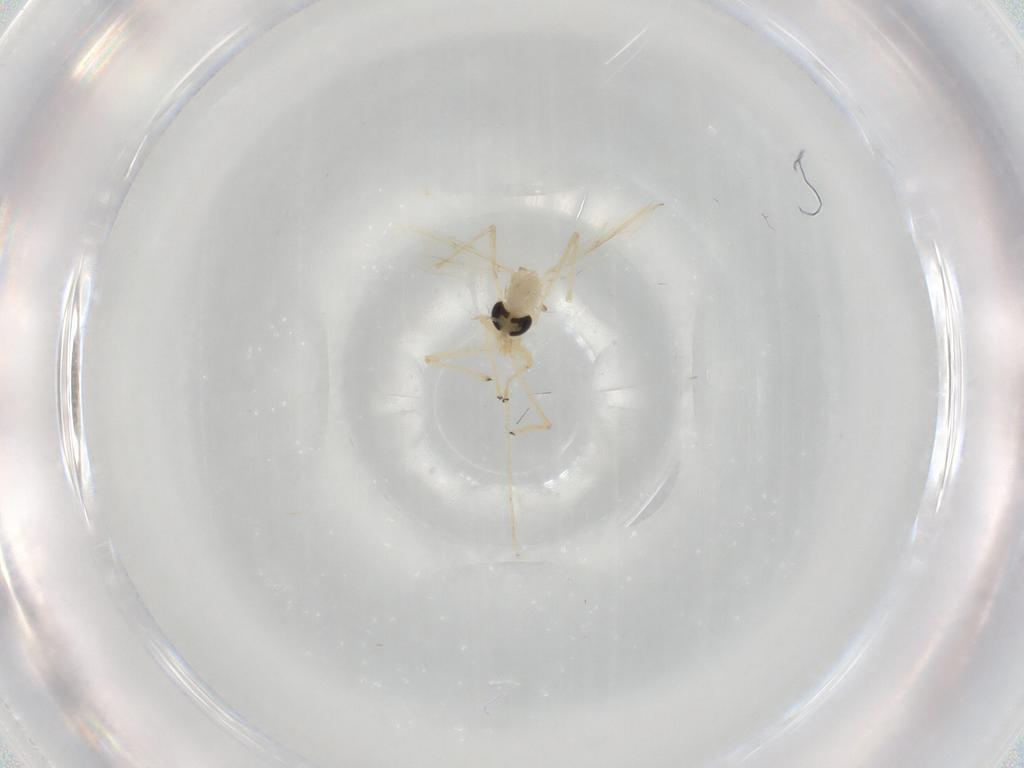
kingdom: Animalia
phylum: Arthropoda
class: Insecta
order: Diptera
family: Chironomidae
